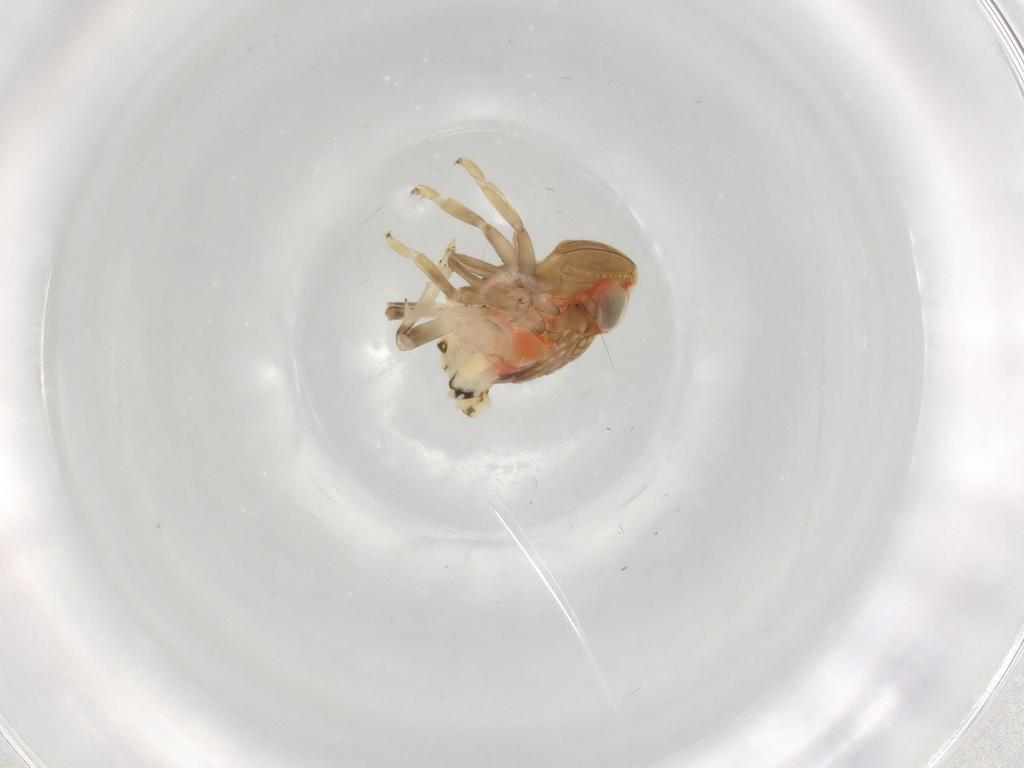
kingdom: Animalia
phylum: Arthropoda
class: Insecta
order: Hemiptera
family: Nogodinidae
